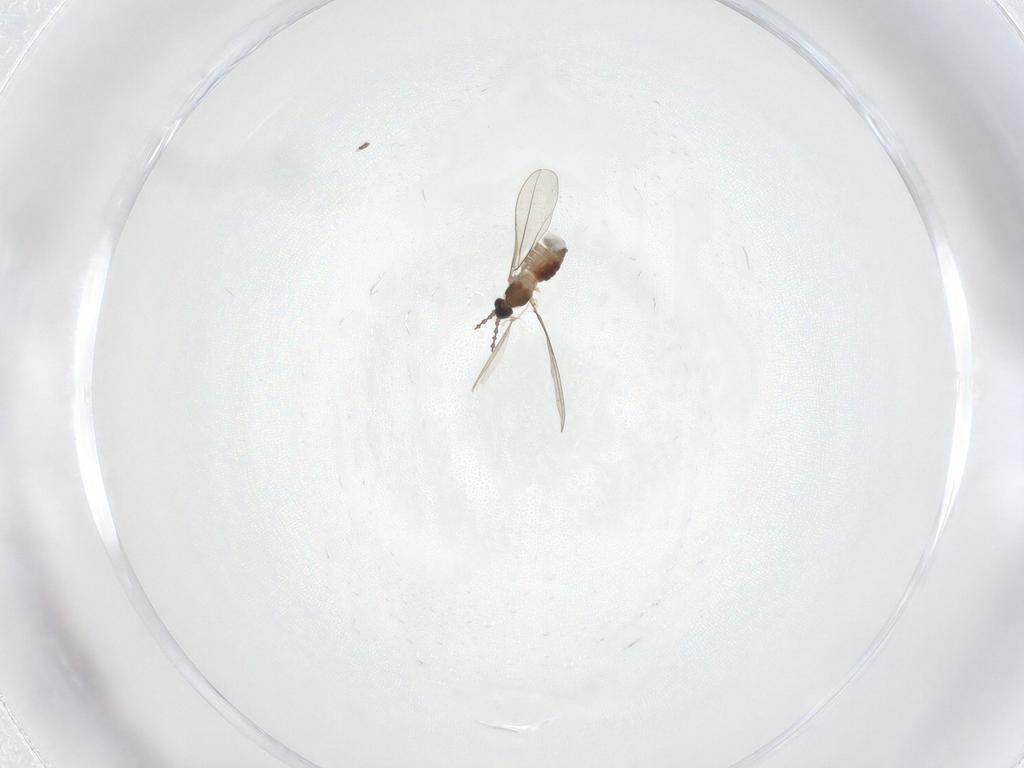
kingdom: Animalia
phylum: Arthropoda
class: Insecta
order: Diptera
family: Cecidomyiidae
